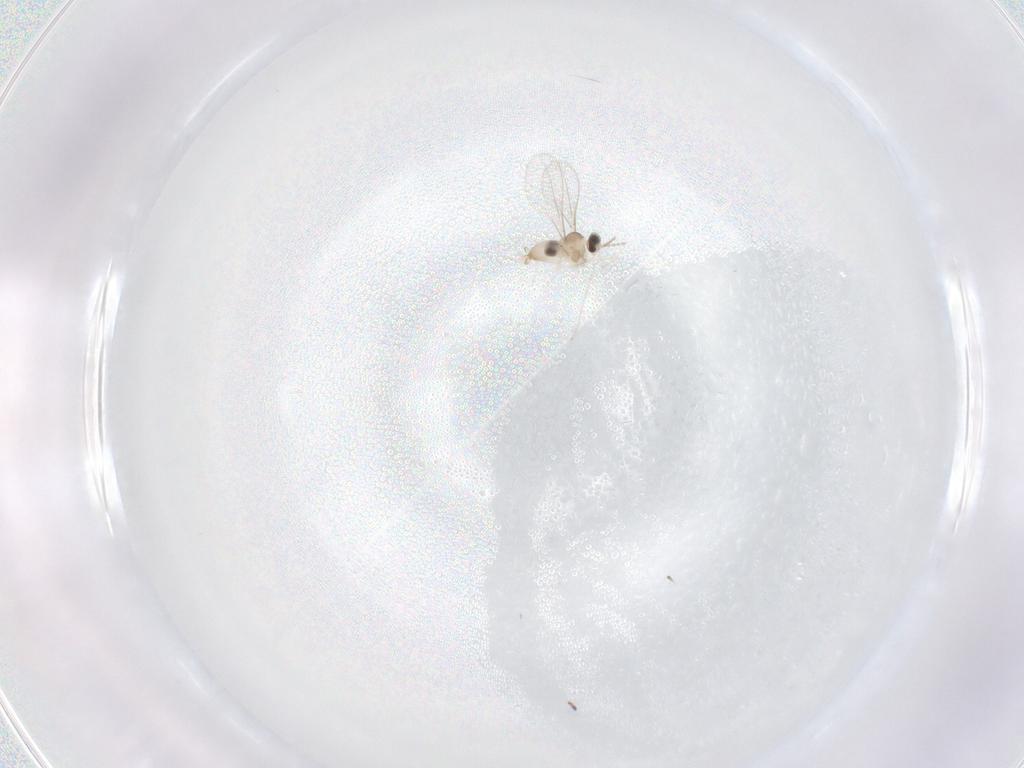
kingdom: Animalia
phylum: Arthropoda
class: Insecta
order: Diptera
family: Cecidomyiidae
